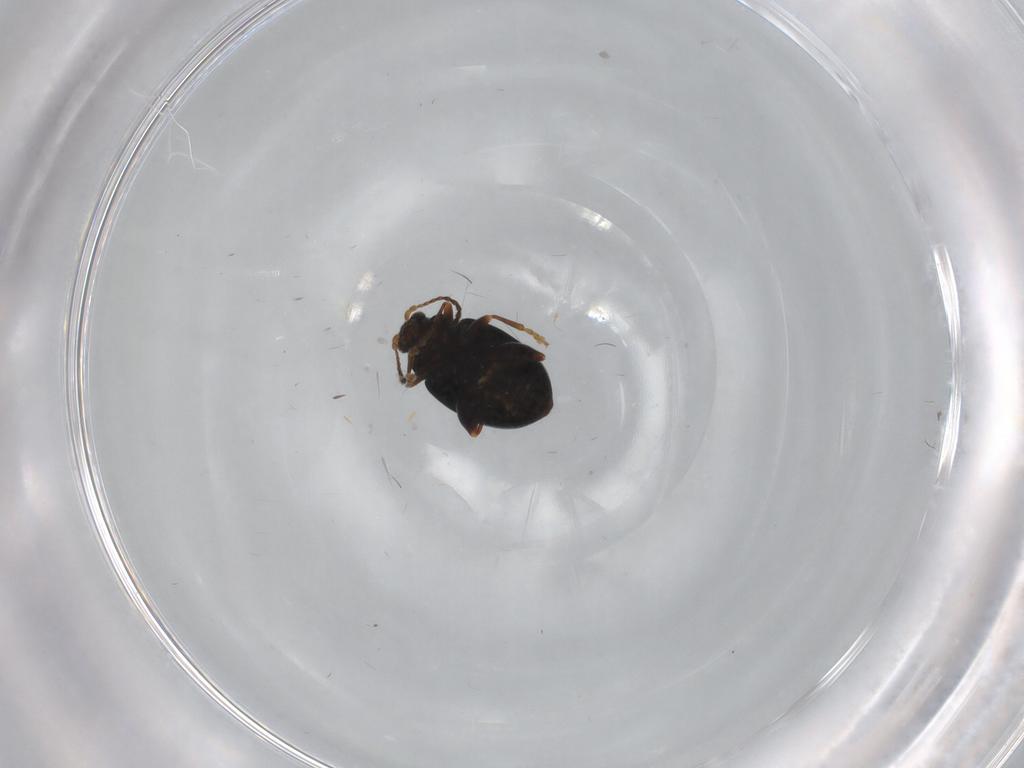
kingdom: Animalia
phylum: Arthropoda
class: Insecta
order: Coleoptera
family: Chrysomelidae
